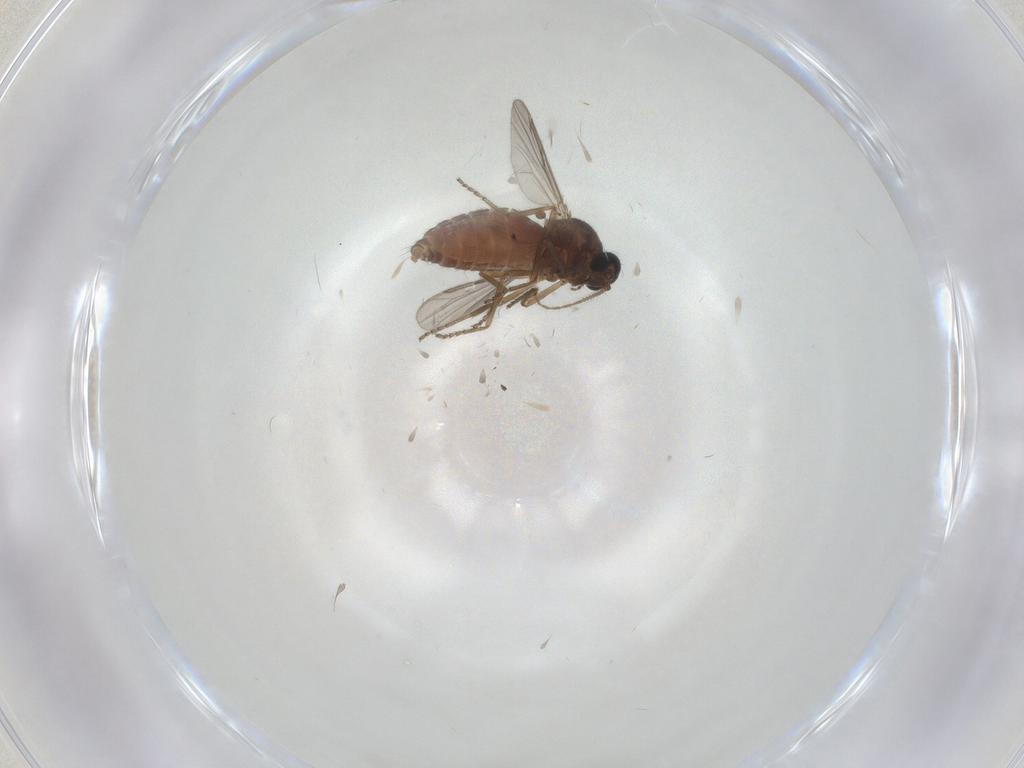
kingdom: Animalia
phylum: Arthropoda
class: Insecta
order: Diptera
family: Ceratopogonidae
